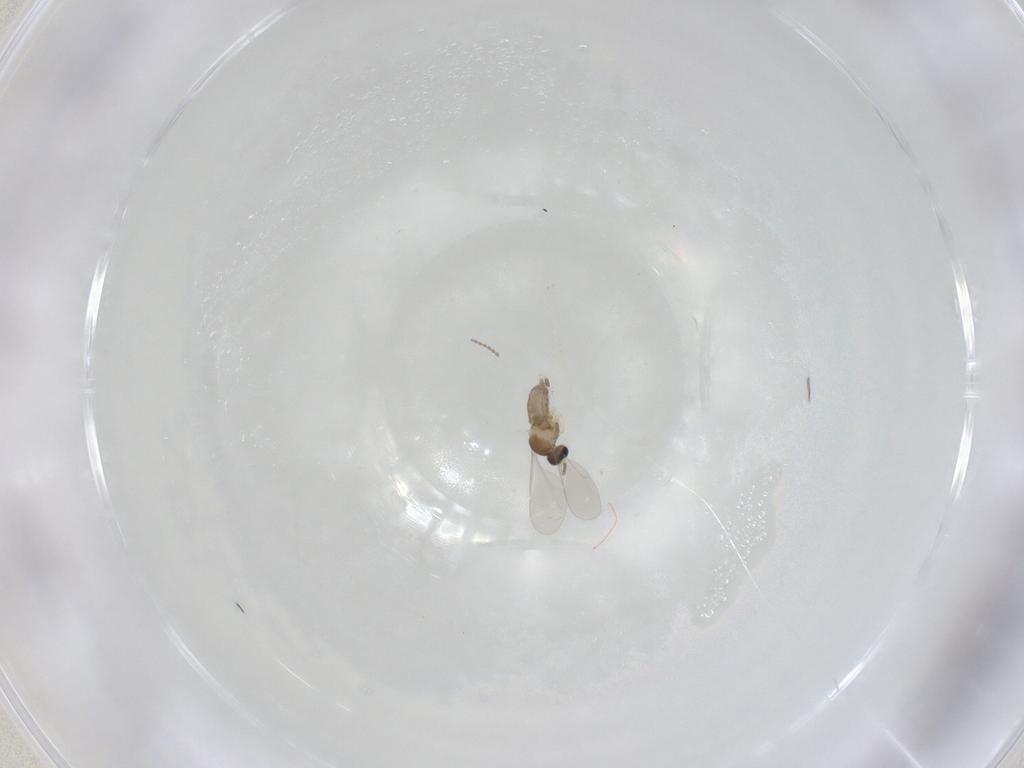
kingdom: Animalia
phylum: Arthropoda
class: Insecta
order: Diptera
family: Cecidomyiidae
